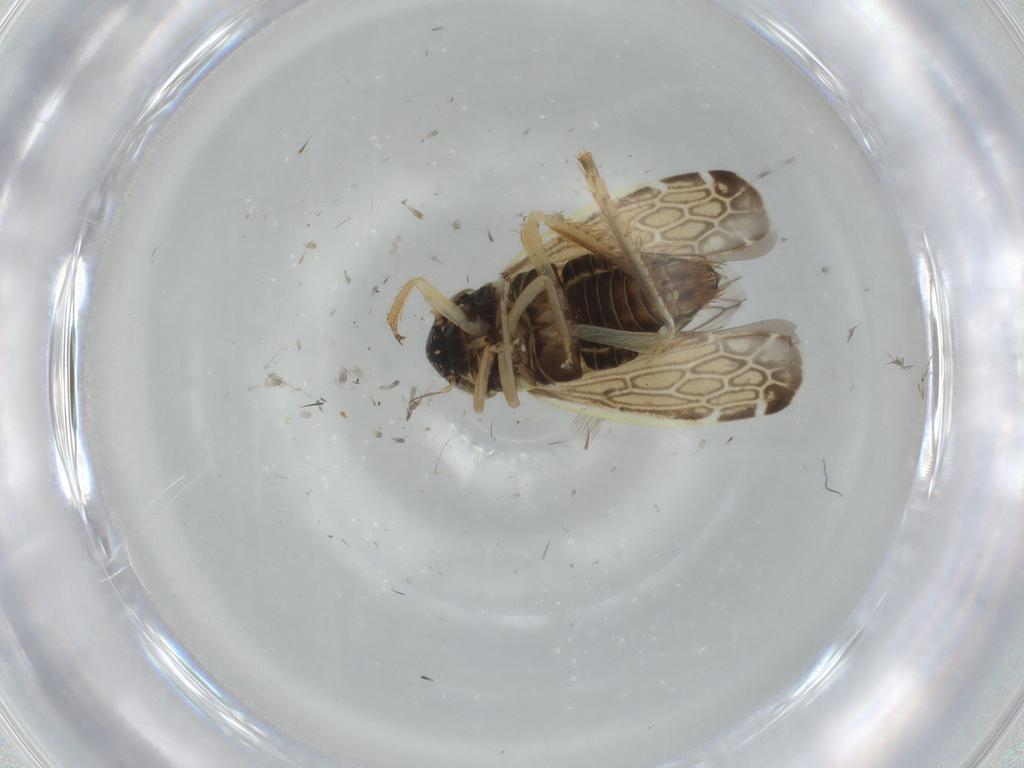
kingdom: Animalia
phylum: Arthropoda
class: Insecta
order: Hemiptera
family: Cicadellidae
